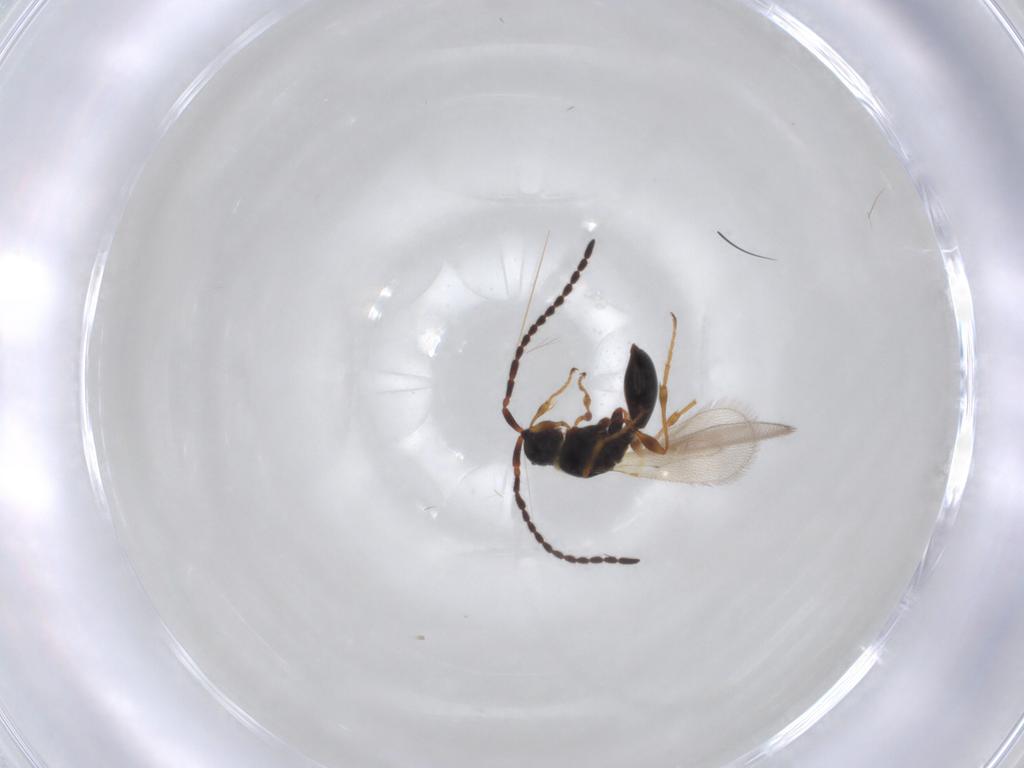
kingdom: Animalia
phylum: Arthropoda
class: Insecta
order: Hymenoptera
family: Diapriidae
